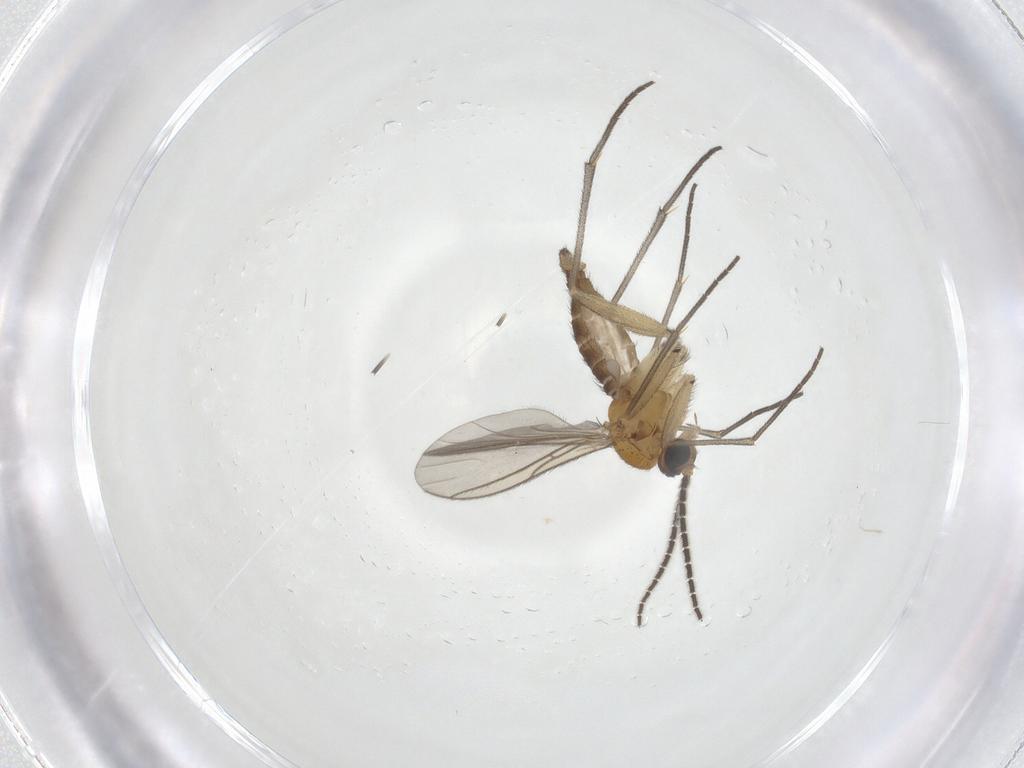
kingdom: Animalia
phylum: Arthropoda
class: Insecta
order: Diptera
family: Sciaridae
